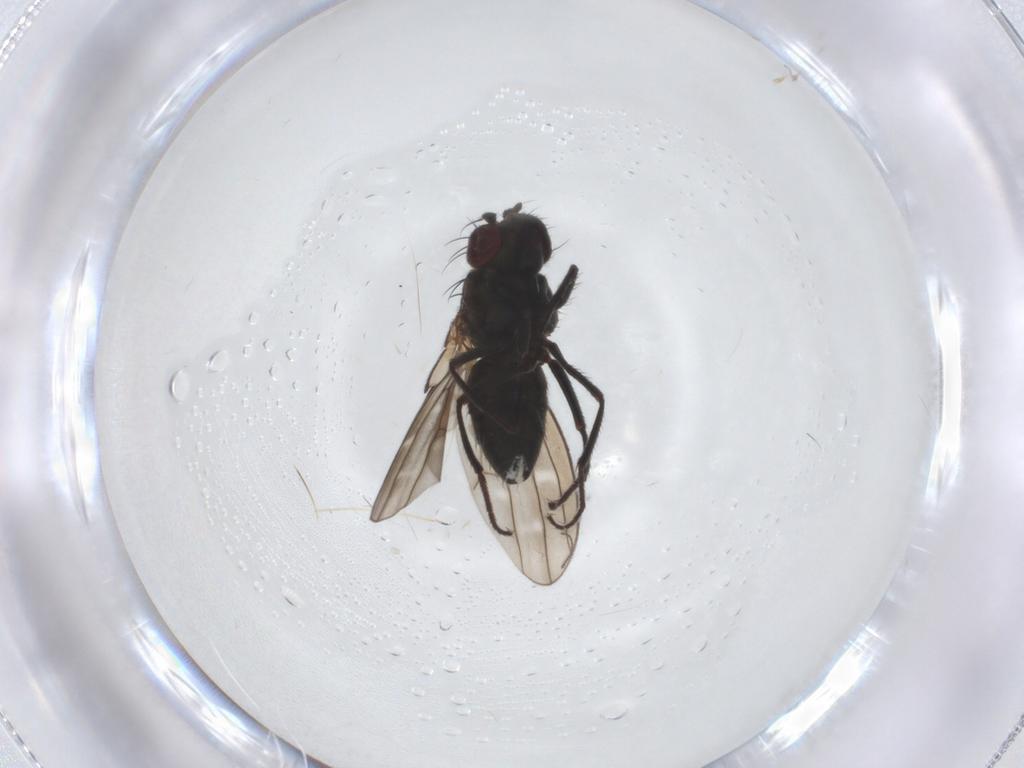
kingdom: Animalia
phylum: Arthropoda
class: Insecta
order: Diptera
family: Ephydridae
